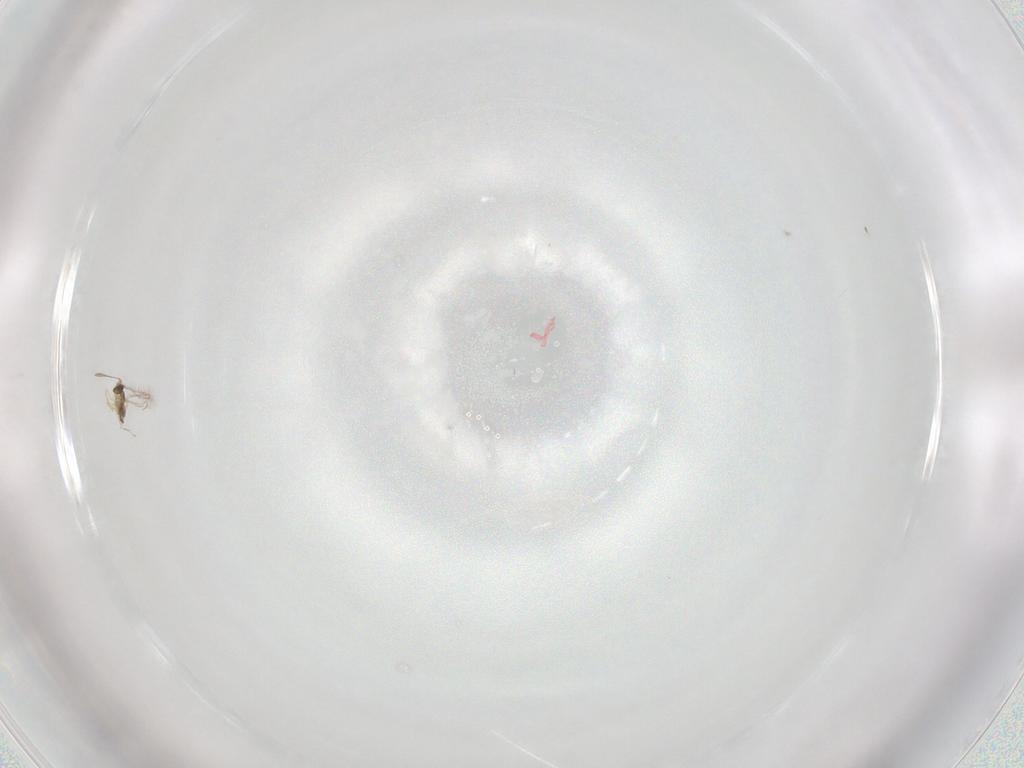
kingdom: Animalia
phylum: Arthropoda
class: Insecta
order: Hymenoptera
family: Mymaridae
